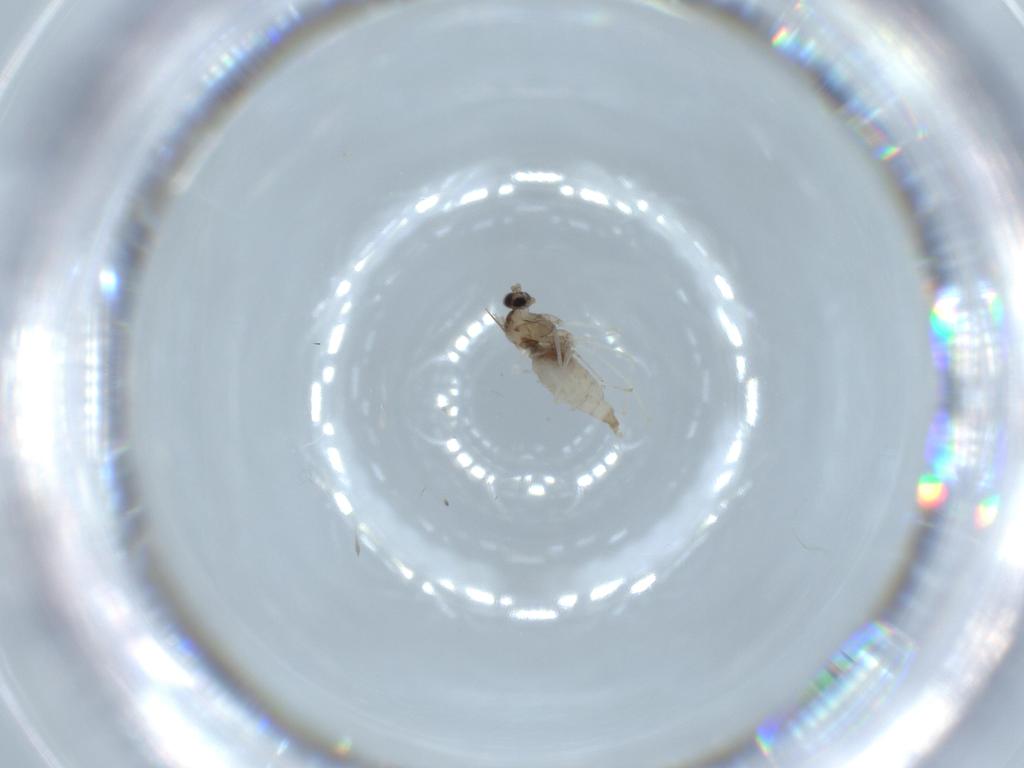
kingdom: Animalia
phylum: Arthropoda
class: Insecta
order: Diptera
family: Cecidomyiidae
